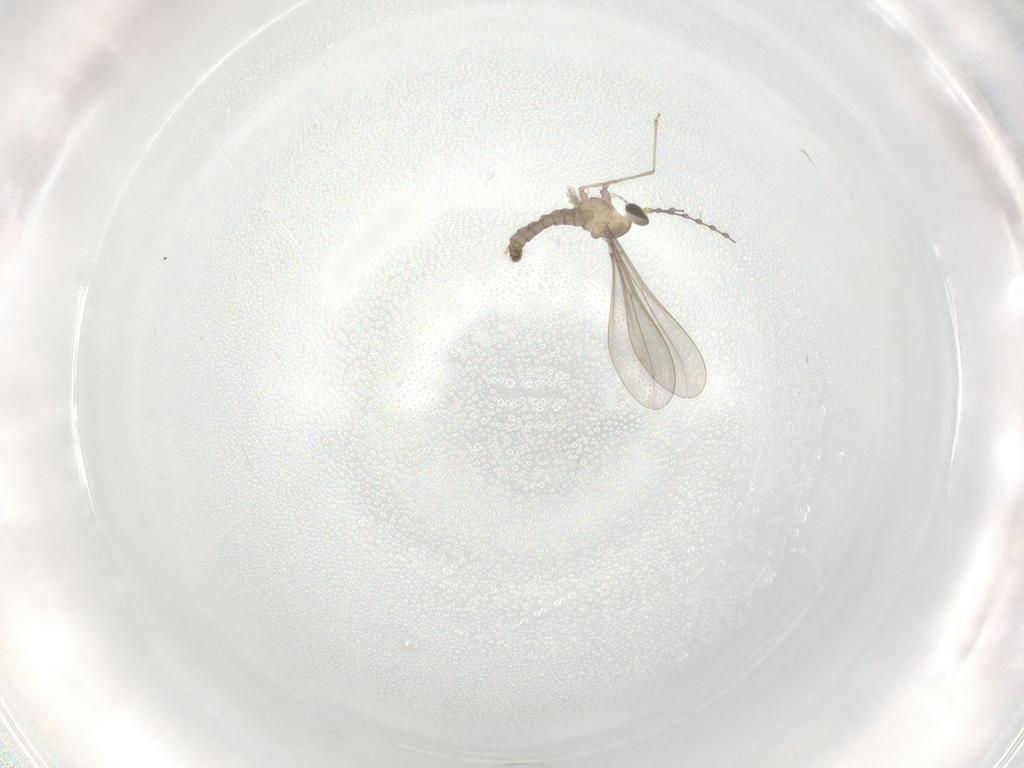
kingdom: Animalia
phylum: Arthropoda
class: Insecta
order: Diptera
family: Cecidomyiidae
